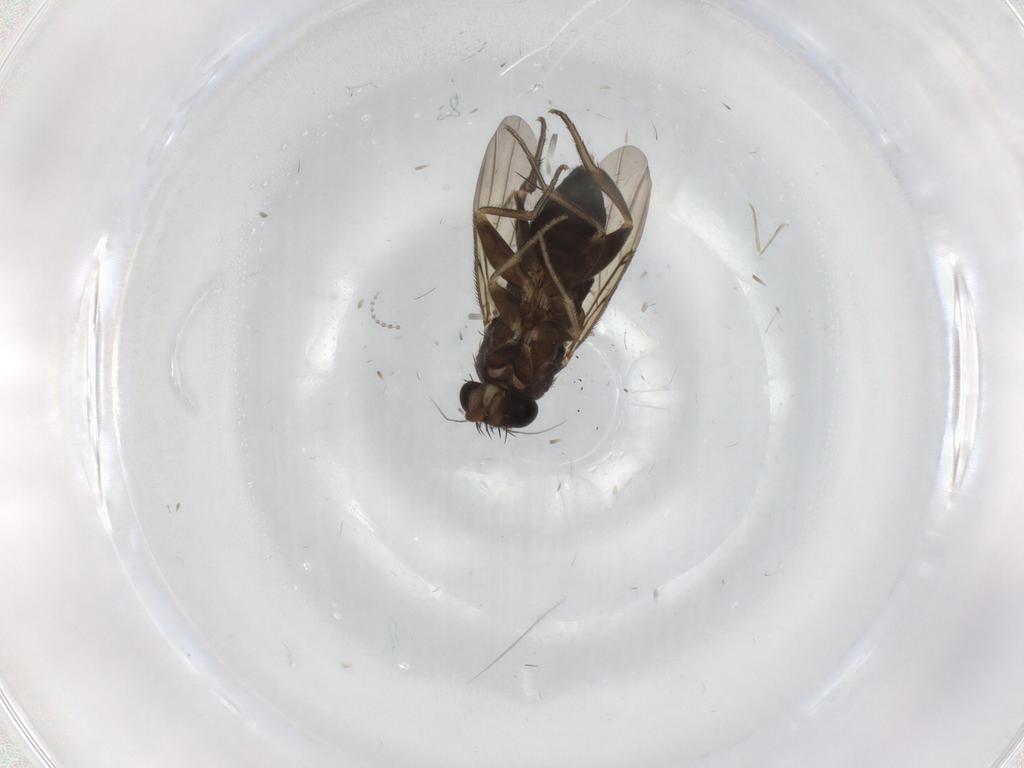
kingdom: Animalia
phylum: Arthropoda
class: Insecta
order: Diptera
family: Phoridae
